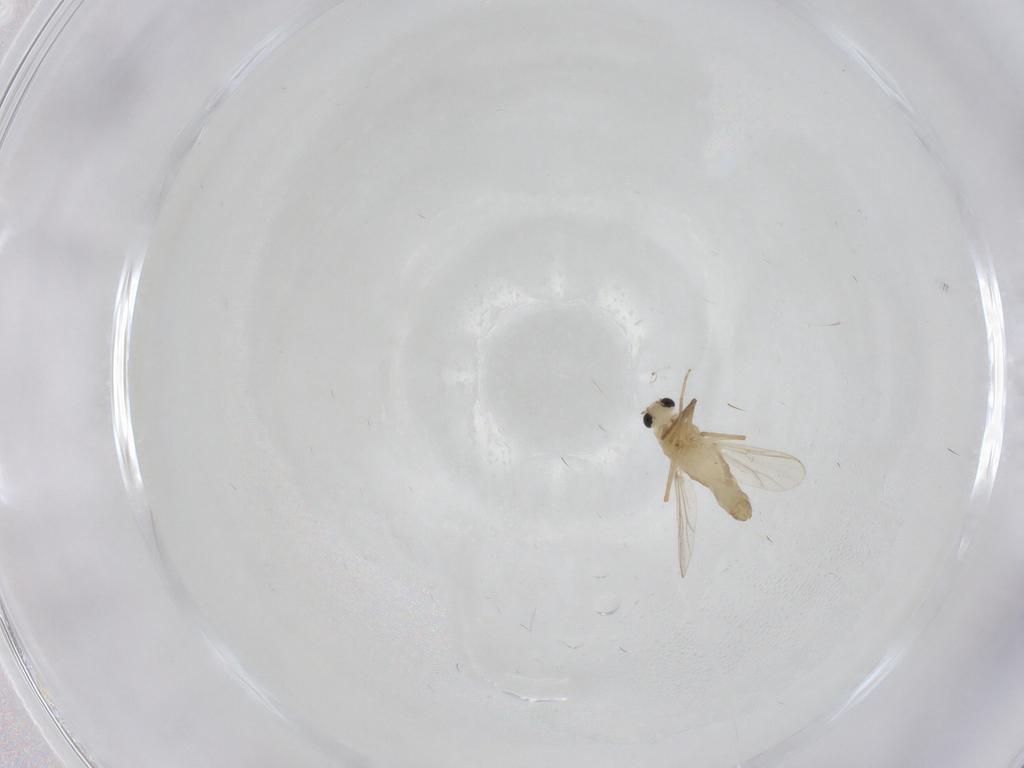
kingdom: Animalia
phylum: Arthropoda
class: Insecta
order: Diptera
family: Chironomidae
